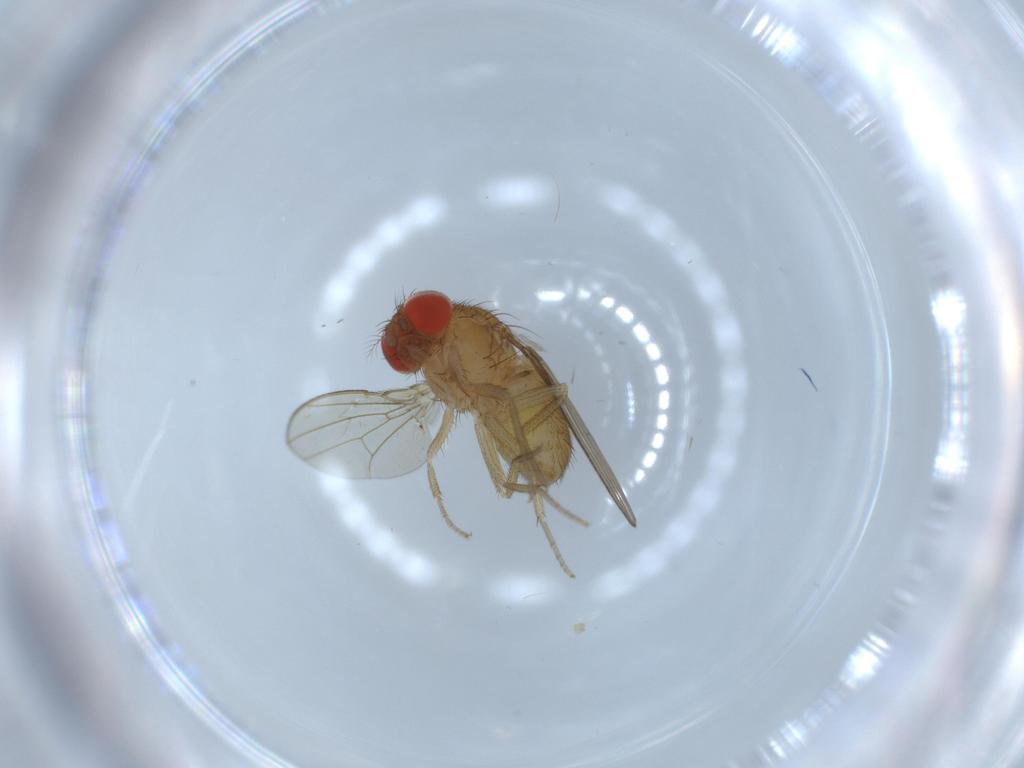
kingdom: Animalia
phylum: Arthropoda
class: Insecta
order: Diptera
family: Drosophilidae
